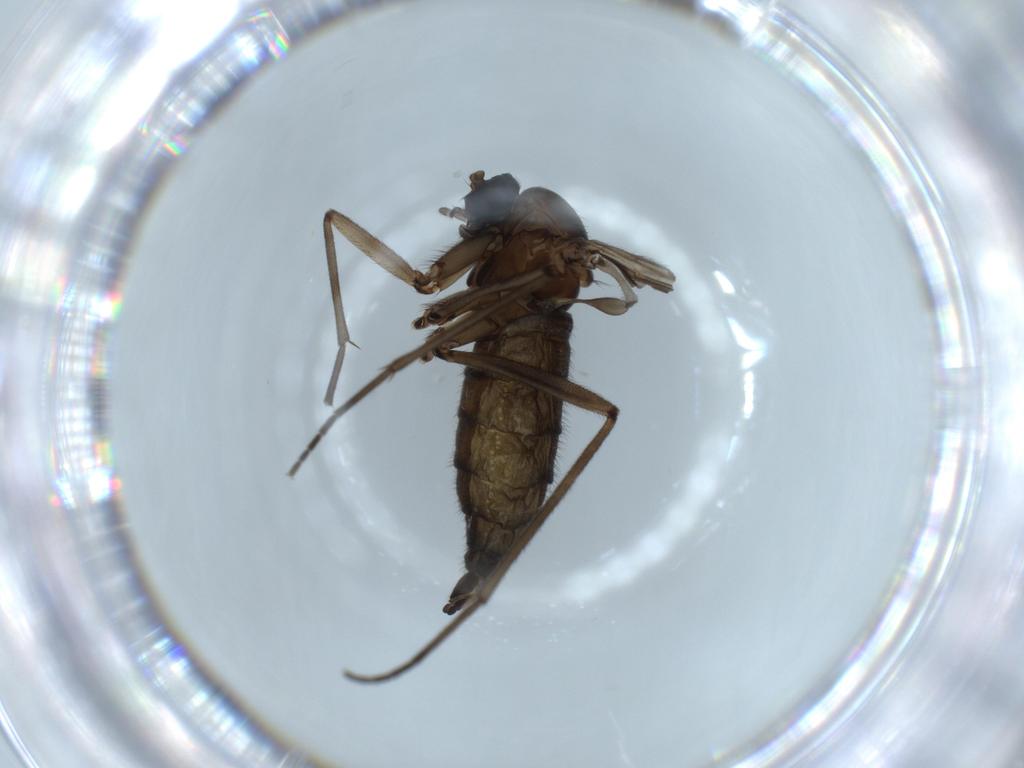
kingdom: Animalia
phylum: Arthropoda
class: Insecta
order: Diptera
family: Sciaridae
